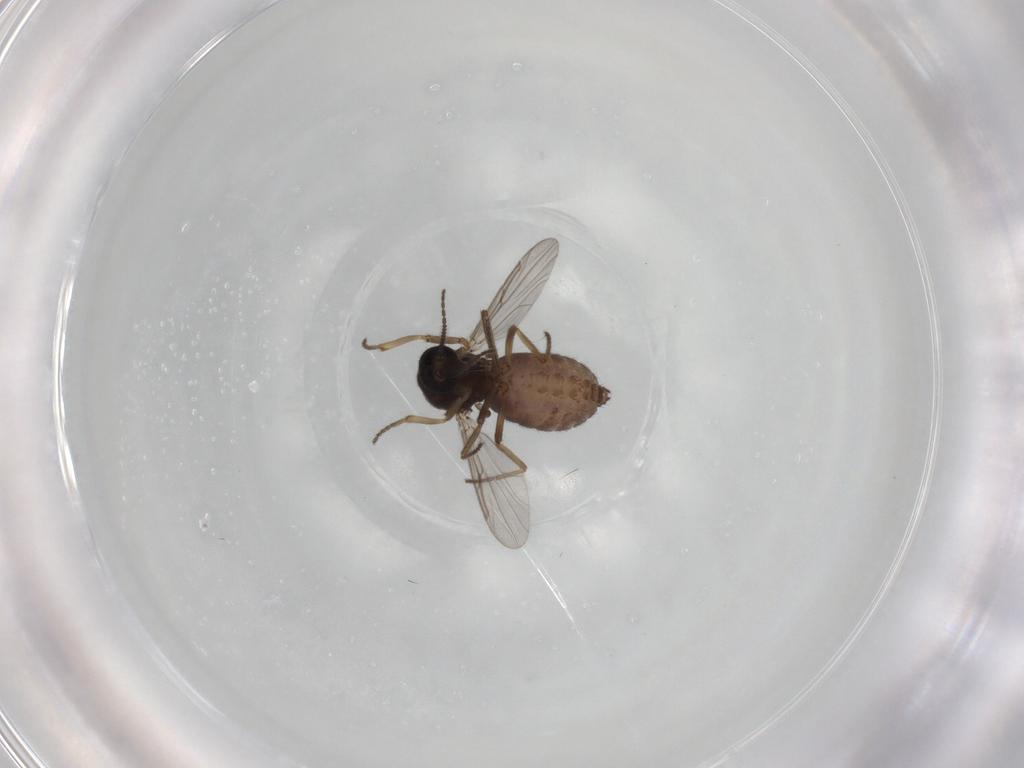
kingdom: Animalia
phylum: Arthropoda
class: Insecta
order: Diptera
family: Ceratopogonidae
